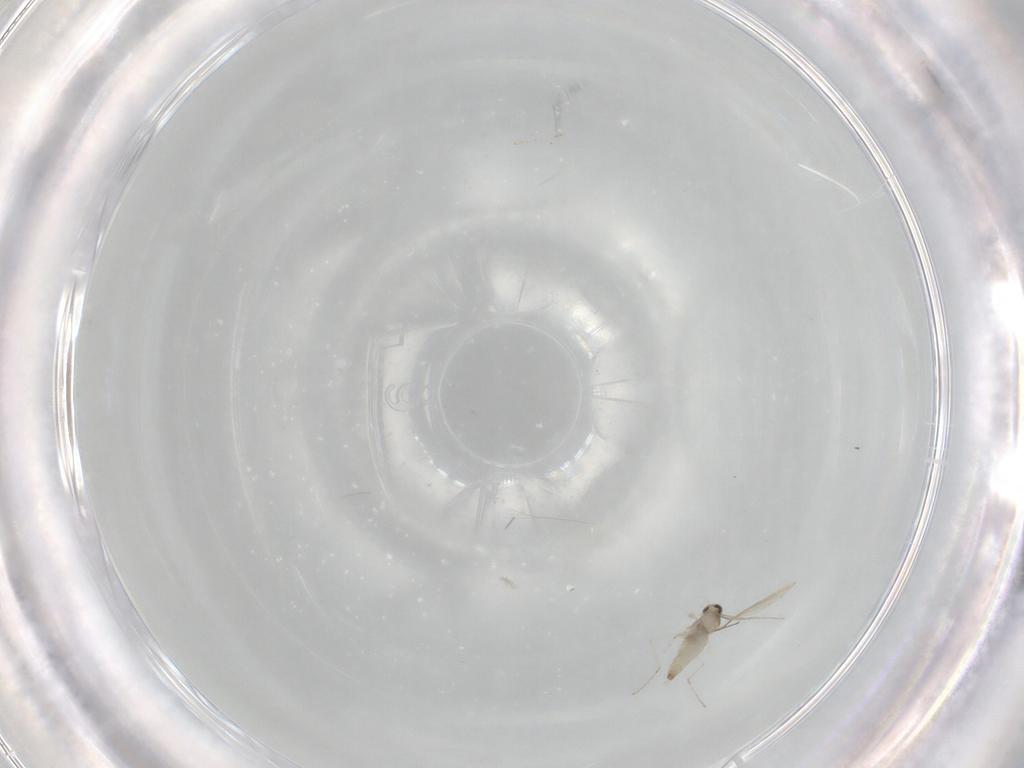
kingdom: Animalia
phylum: Arthropoda
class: Insecta
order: Diptera
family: Cecidomyiidae
